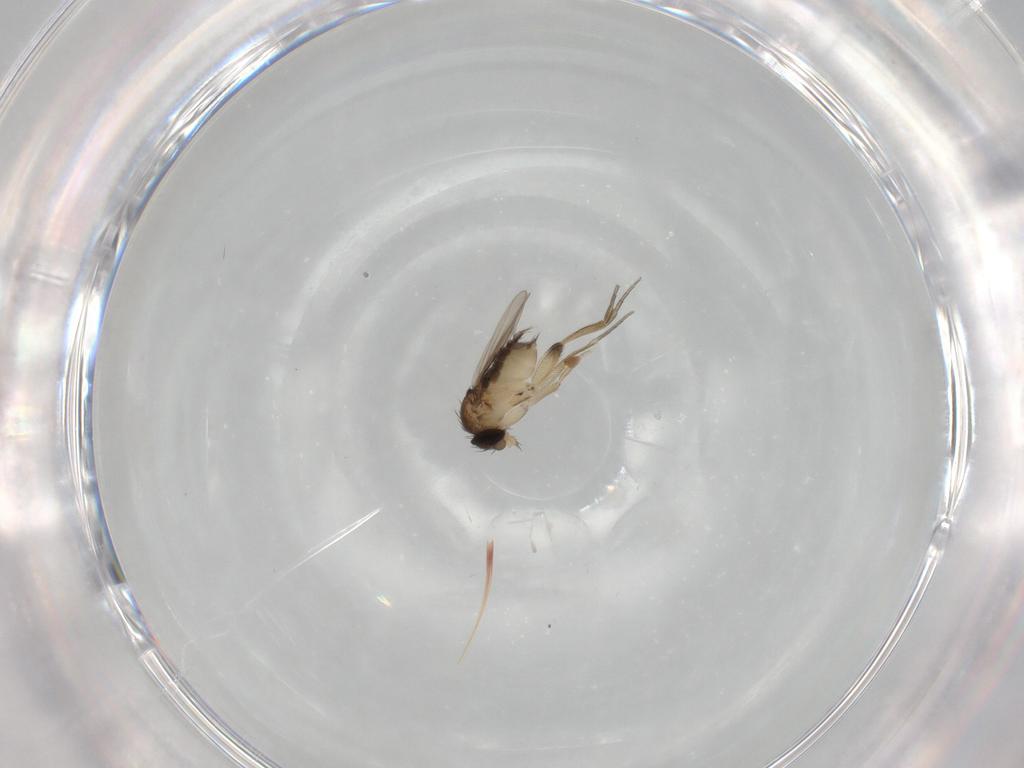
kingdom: Animalia
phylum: Arthropoda
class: Insecta
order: Diptera
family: Phoridae
